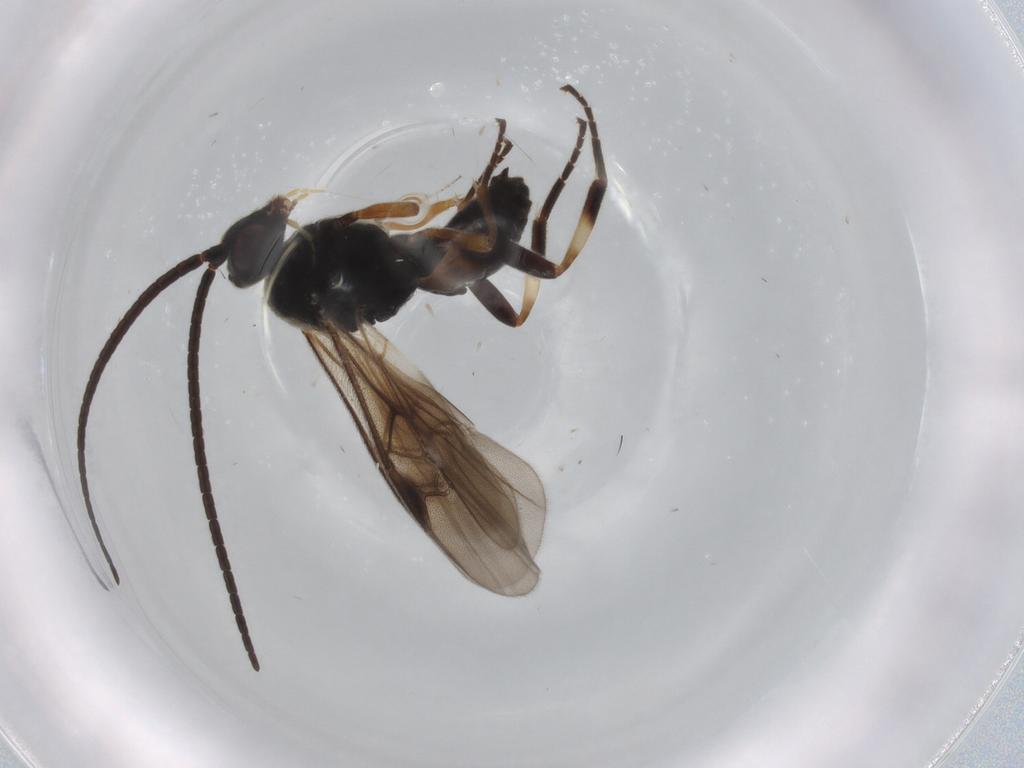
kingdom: Animalia
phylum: Arthropoda
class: Insecta
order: Hymenoptera
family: Braconidae
